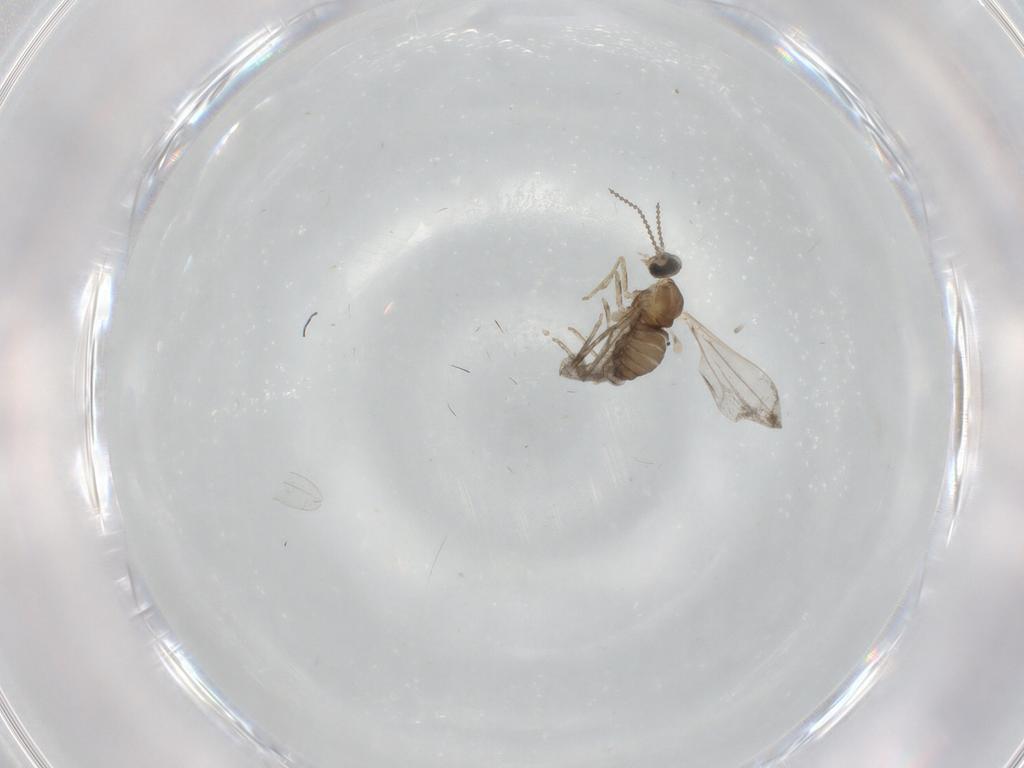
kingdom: Animalia
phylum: Arthropoda
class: Insecta
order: Diptera
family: Cecidomyiidae
